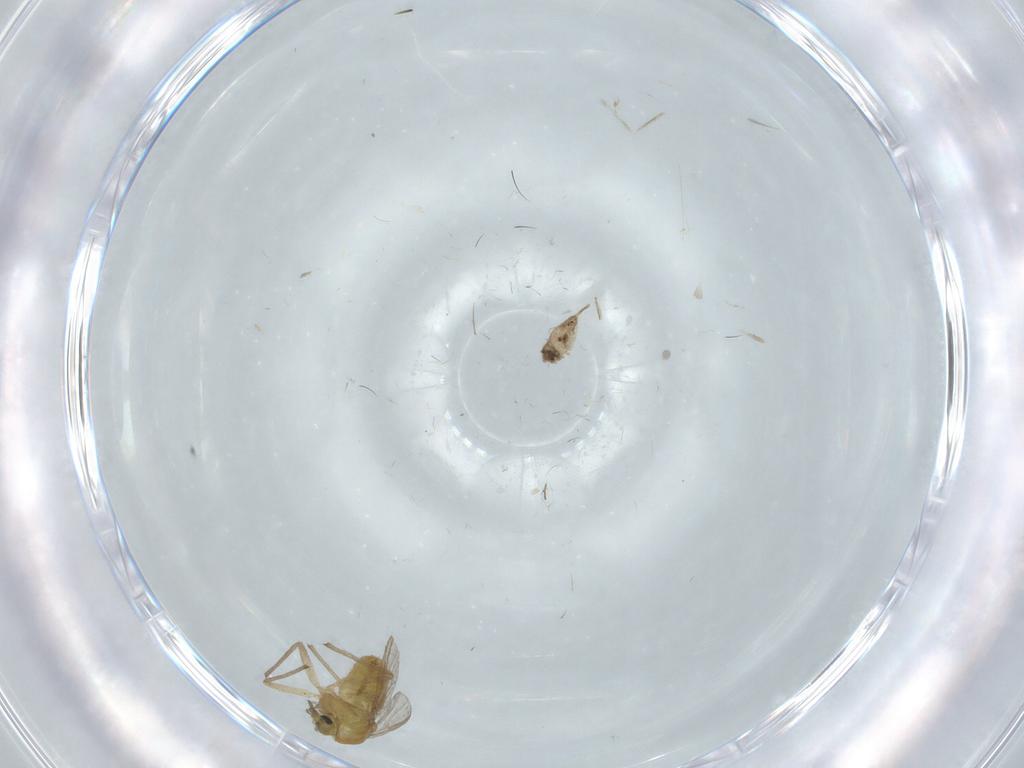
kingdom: Animalia
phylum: Arthropoda
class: Insecta
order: Diptera
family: Chironomidae
